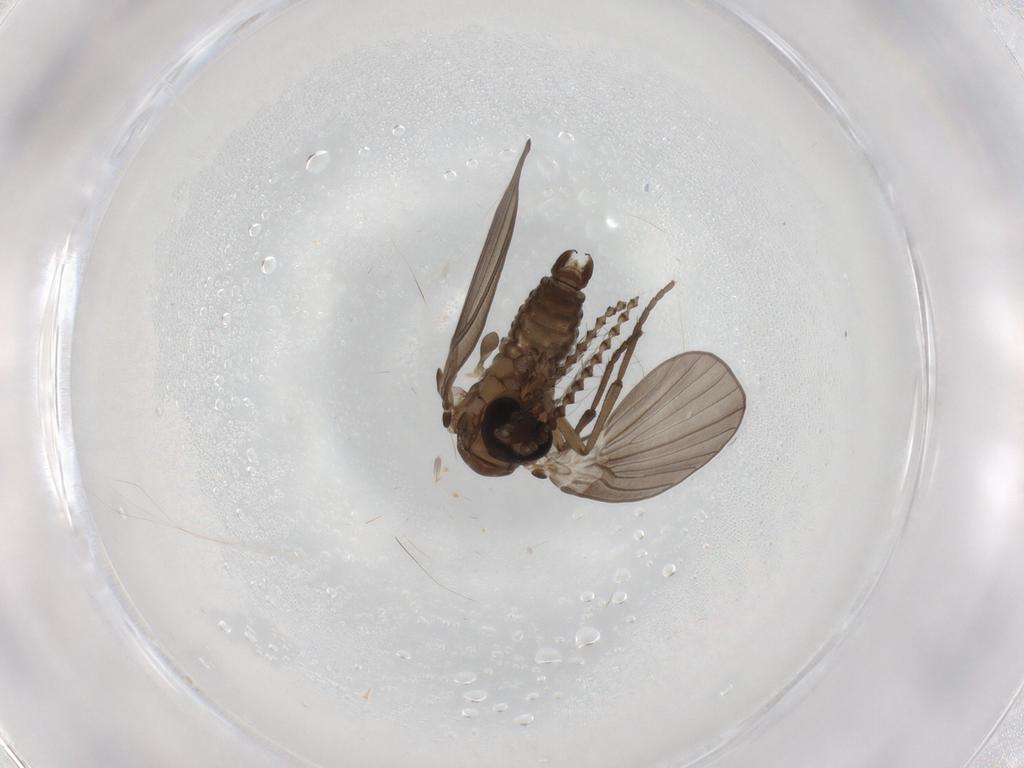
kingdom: Animalia
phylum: Arthropoda
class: Insecta
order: Diptera
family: Psychodidae
